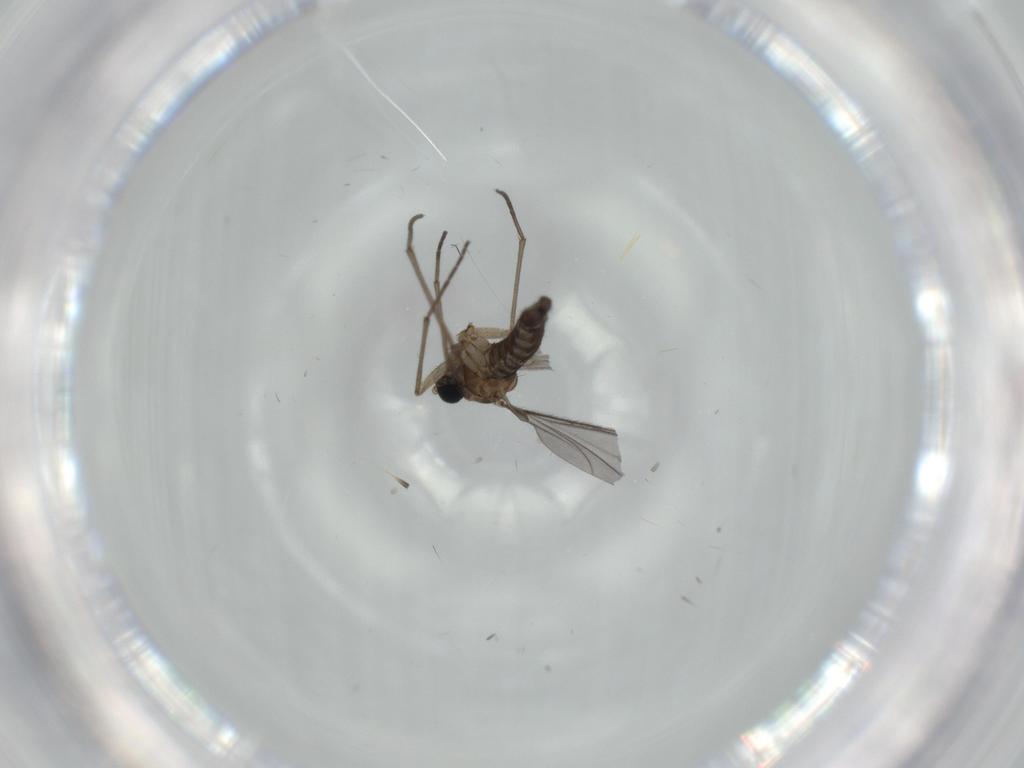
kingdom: Animalia
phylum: Arthropoda
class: Insecta
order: Diptera
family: Sciaridae
